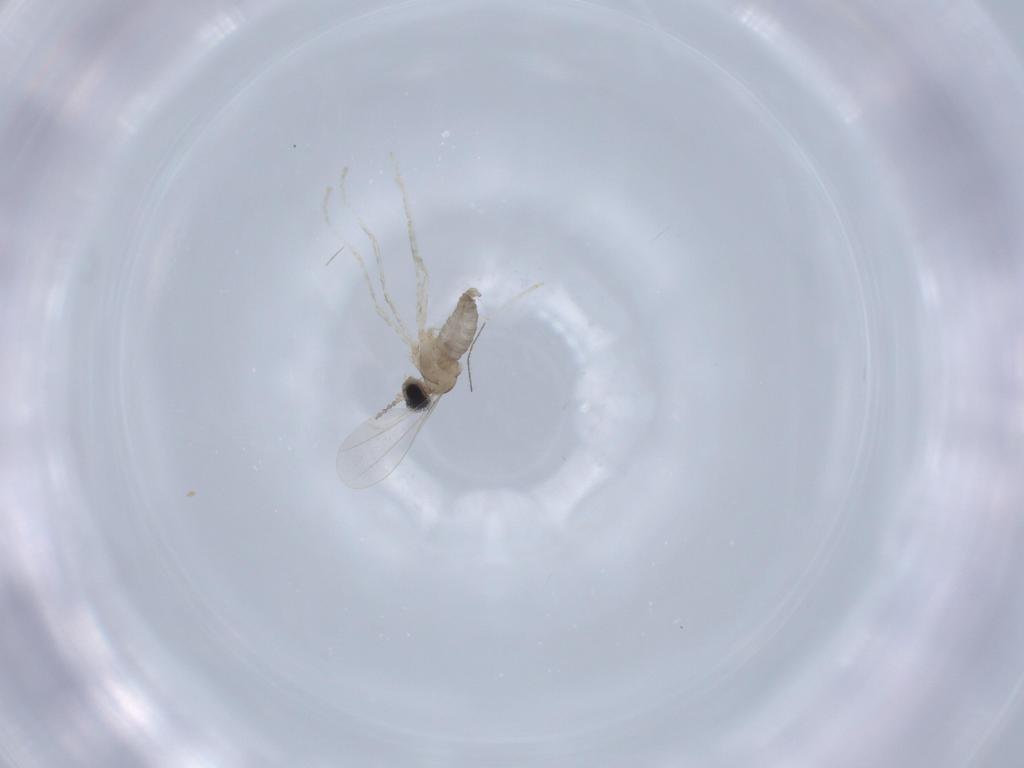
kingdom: Animalia
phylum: Arthropoda
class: Insecta
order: Diptera
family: Cecidomyiidae
